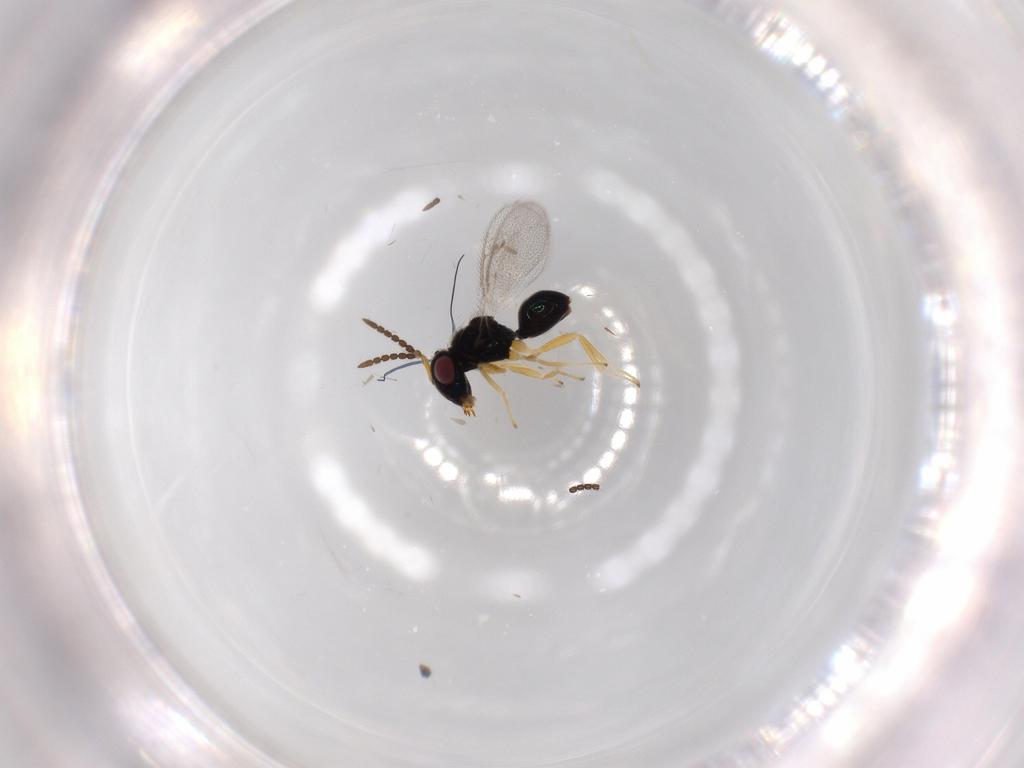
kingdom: Animalia
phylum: Arthropoda
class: Insecta
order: Hymenoptera
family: Pteromalidae
